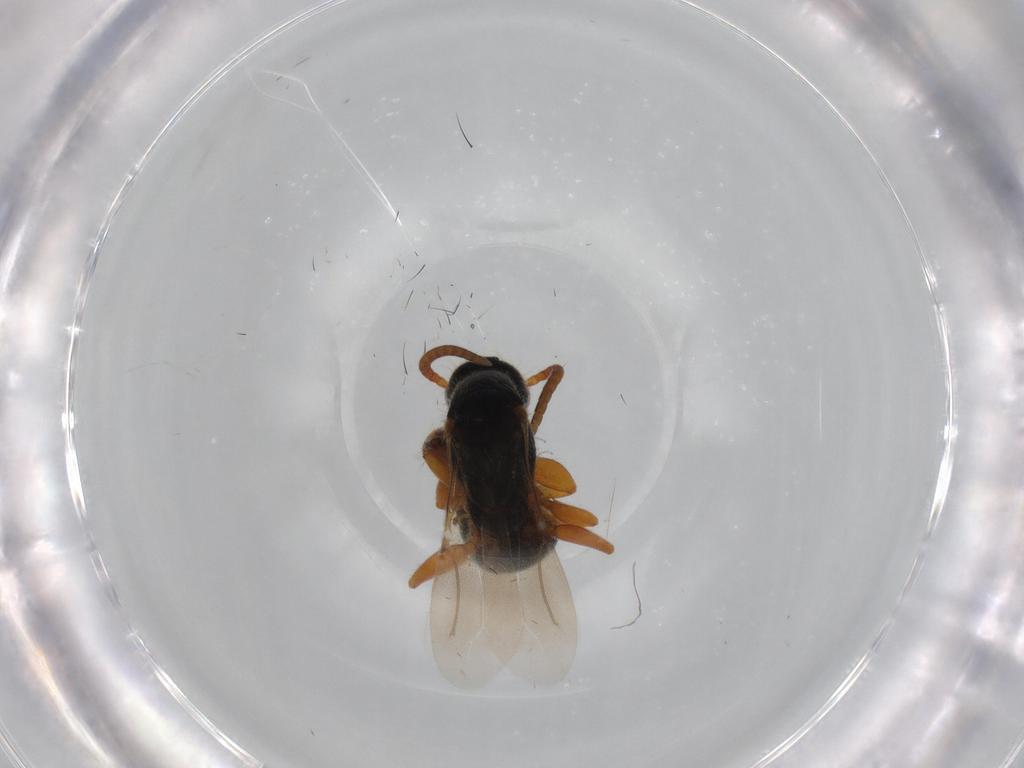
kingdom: Animalia
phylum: Arthropoda
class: Insecta
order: Hymenoptera
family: Bethylidae
